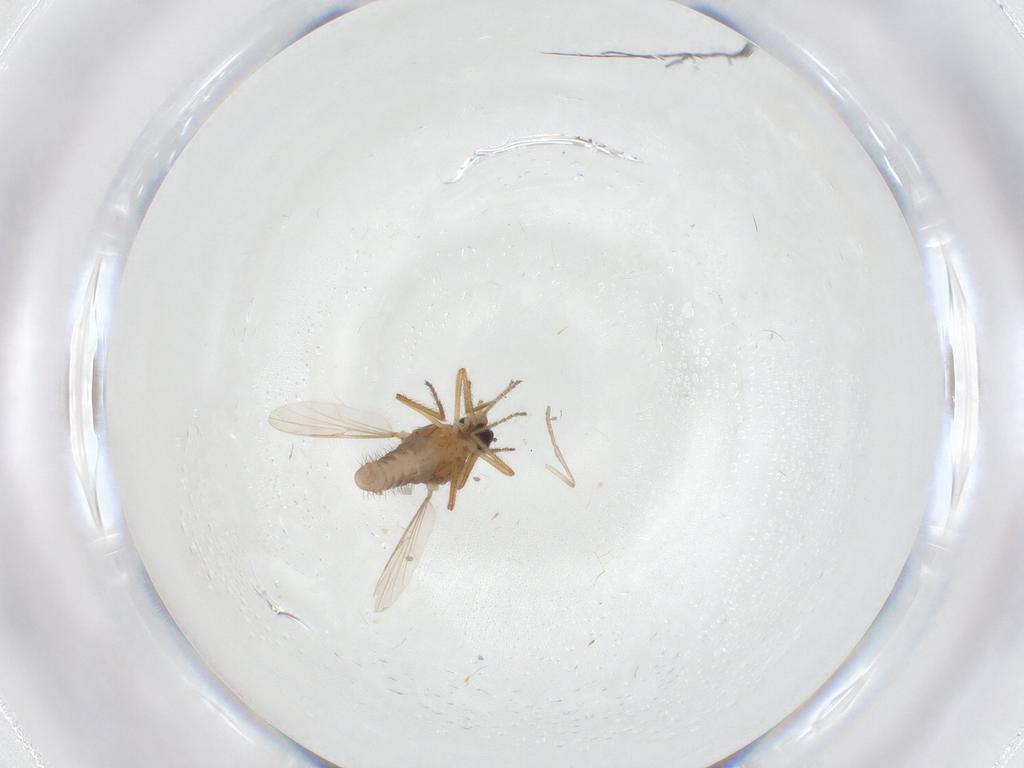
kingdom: Animalia
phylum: Arthropoda
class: Insecta
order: Diptera
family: Ceratopogonidae
